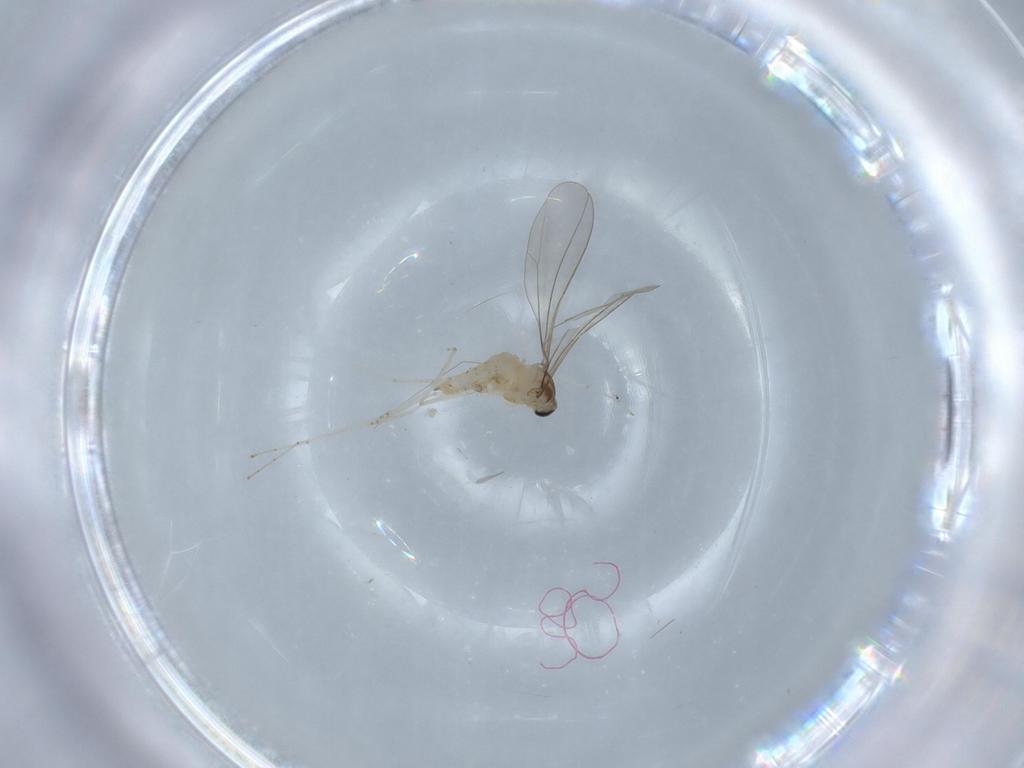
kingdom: Animalia
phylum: Arthropoda
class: Insecta
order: Diptera
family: Cecidomyiidae
